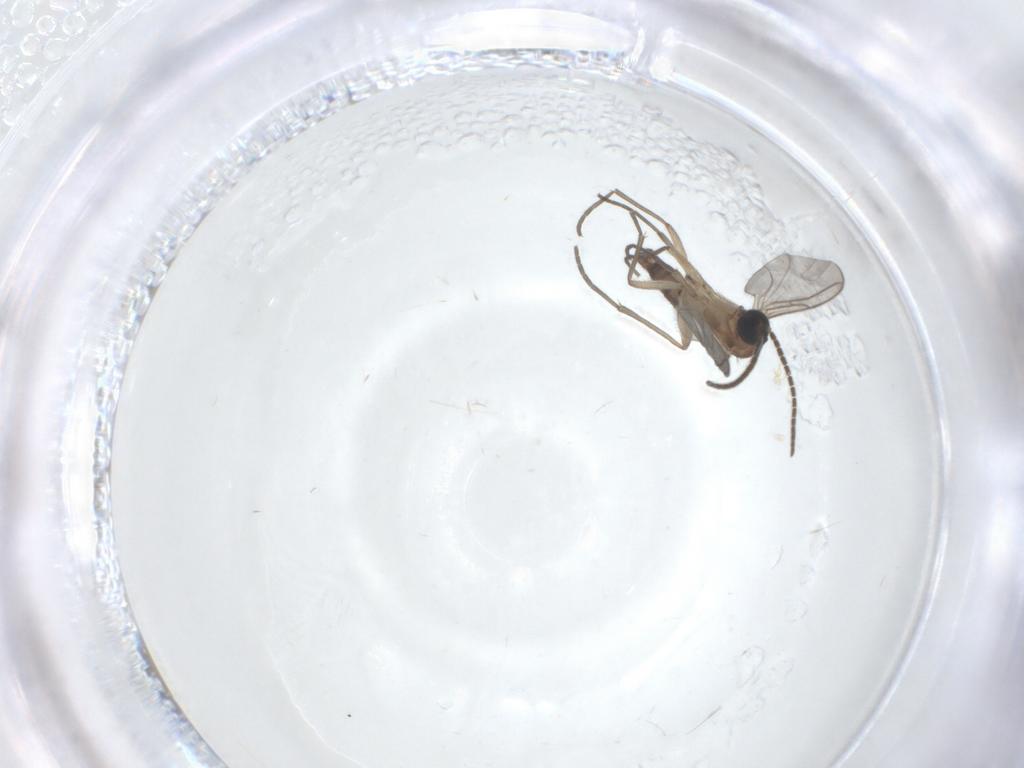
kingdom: Animalia
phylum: Arthropoda
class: Insecta
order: Diptera
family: Sciaridae
